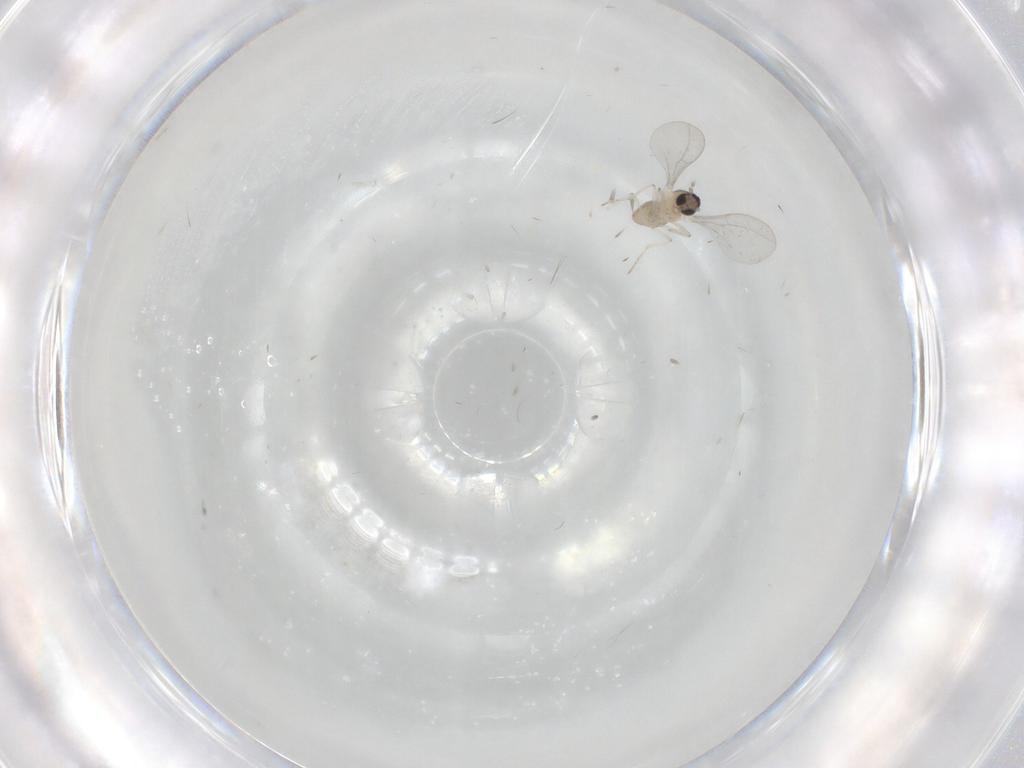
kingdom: Animalia
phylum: Arthropoda
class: Insecta
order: Diptera
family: Cecidomyiidae
